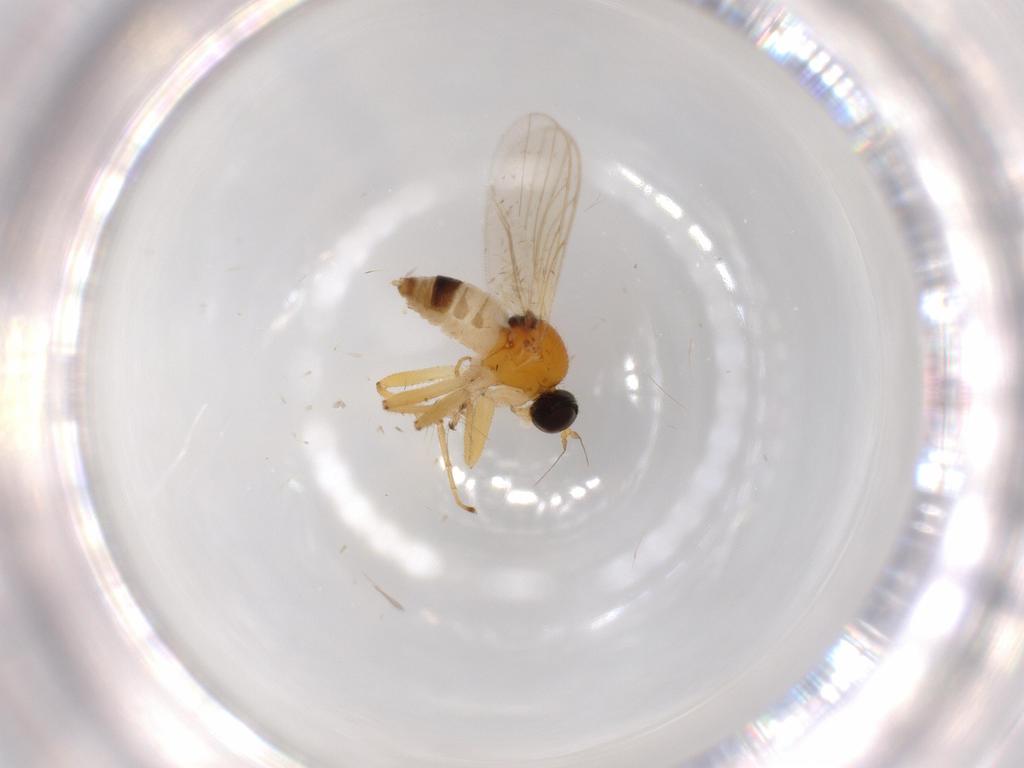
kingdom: Animalia
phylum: Arthropoda
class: Insecta
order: Diptera
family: Hybotidae
